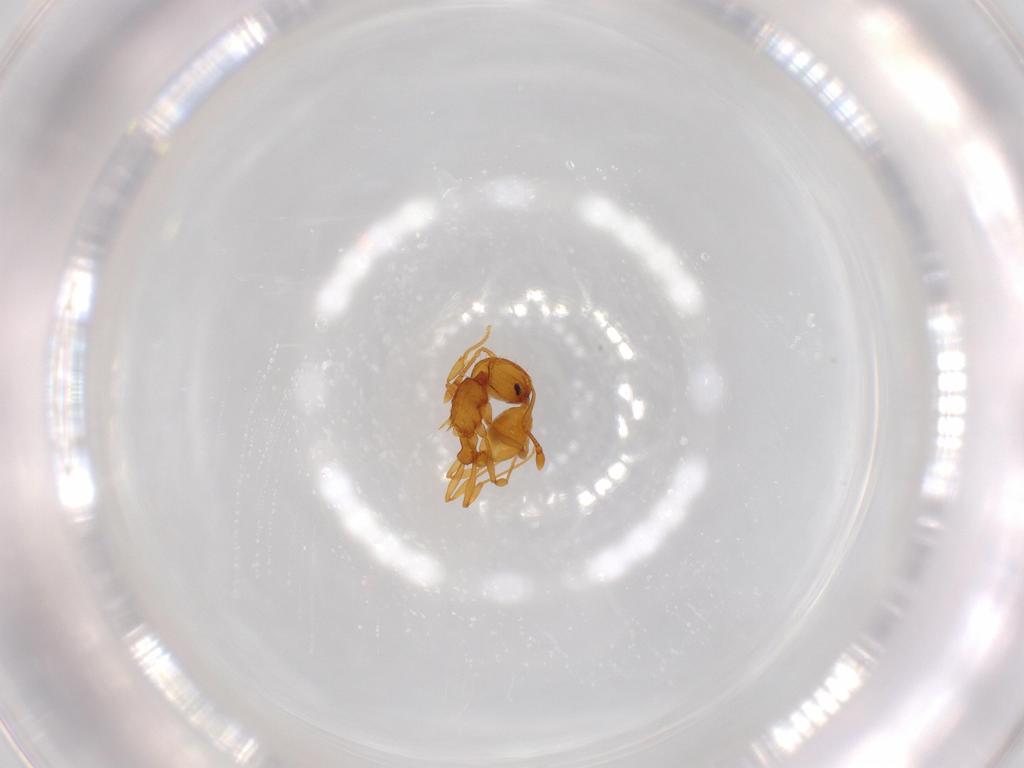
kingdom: Animalia
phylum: Arthropoda
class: Insecta
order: Hymenoptera
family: Formicidae
